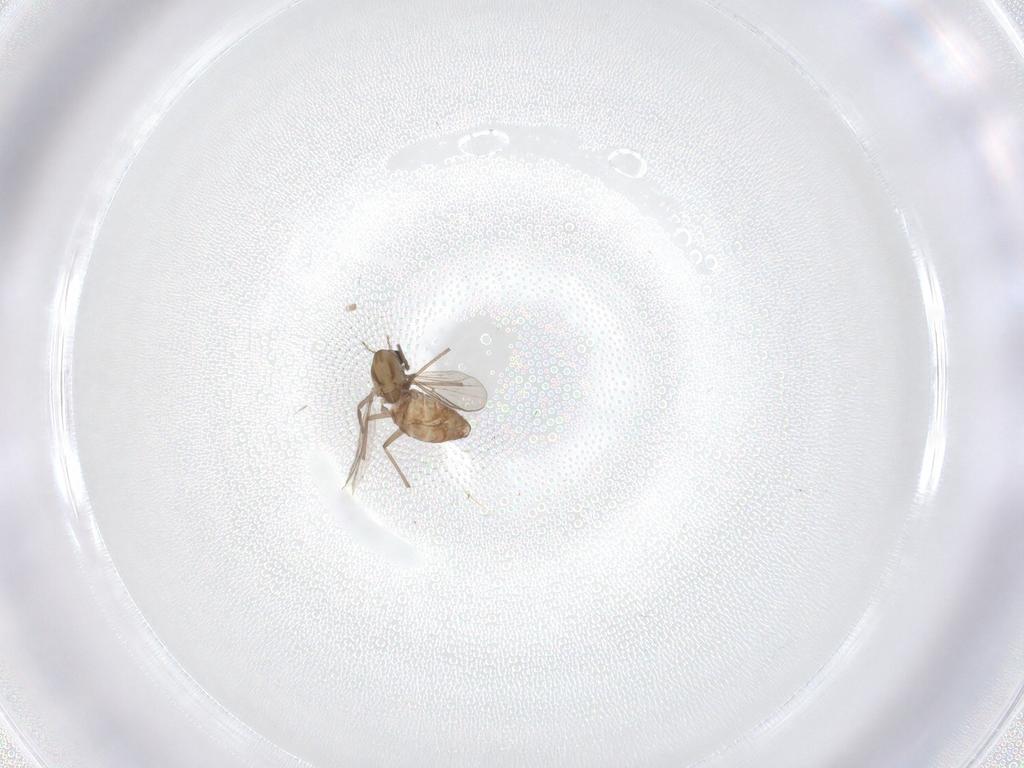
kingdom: Animalia
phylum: Arthropoda
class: Insecta
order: Diptera
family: Chironomidae
